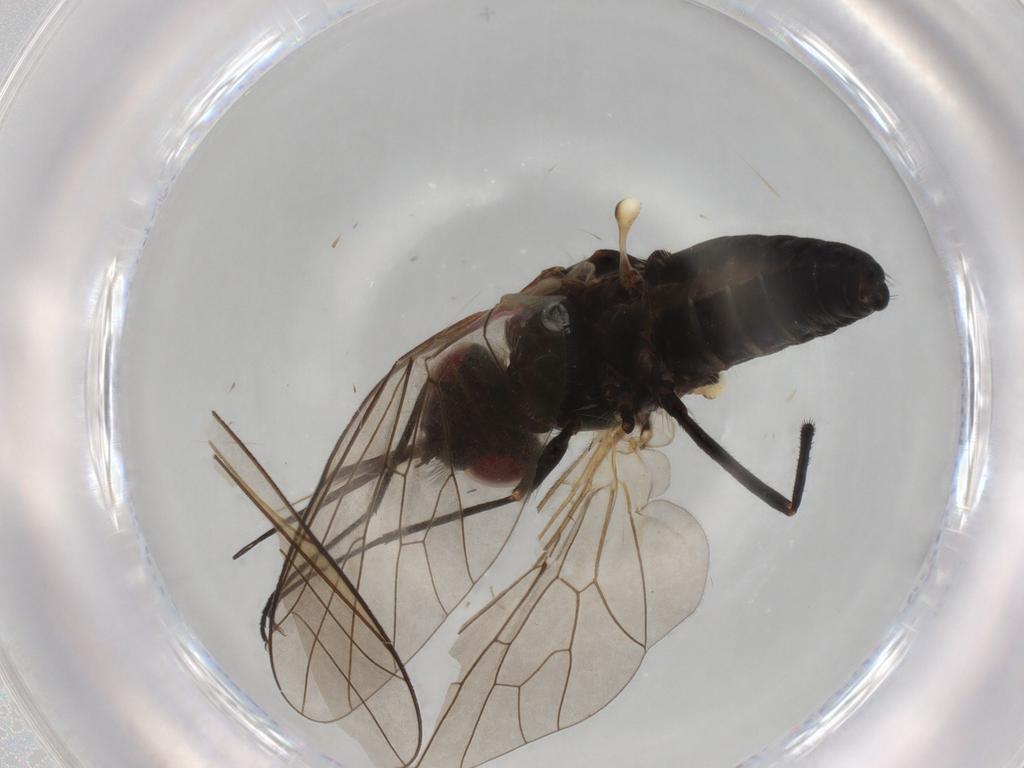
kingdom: Animalia
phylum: Arthropoda
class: Insecta
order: Diptera
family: Bombyliidae
